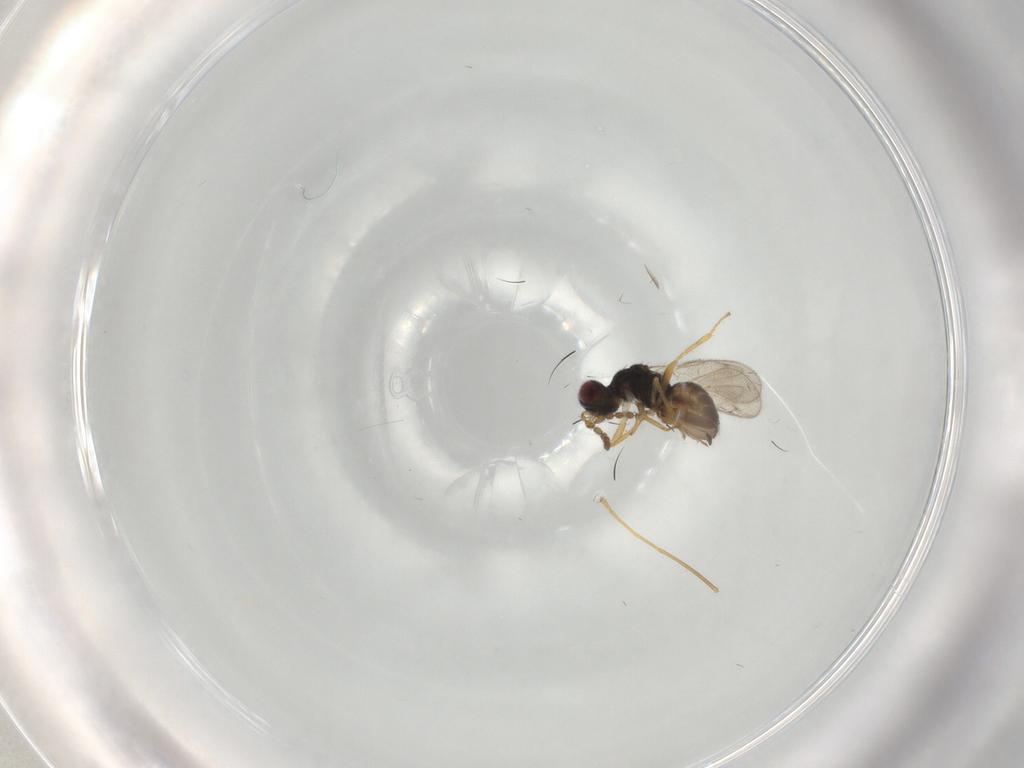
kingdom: Animalia
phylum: Arthropoda
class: Insecta
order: Hymenoptera
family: Eulophidae
